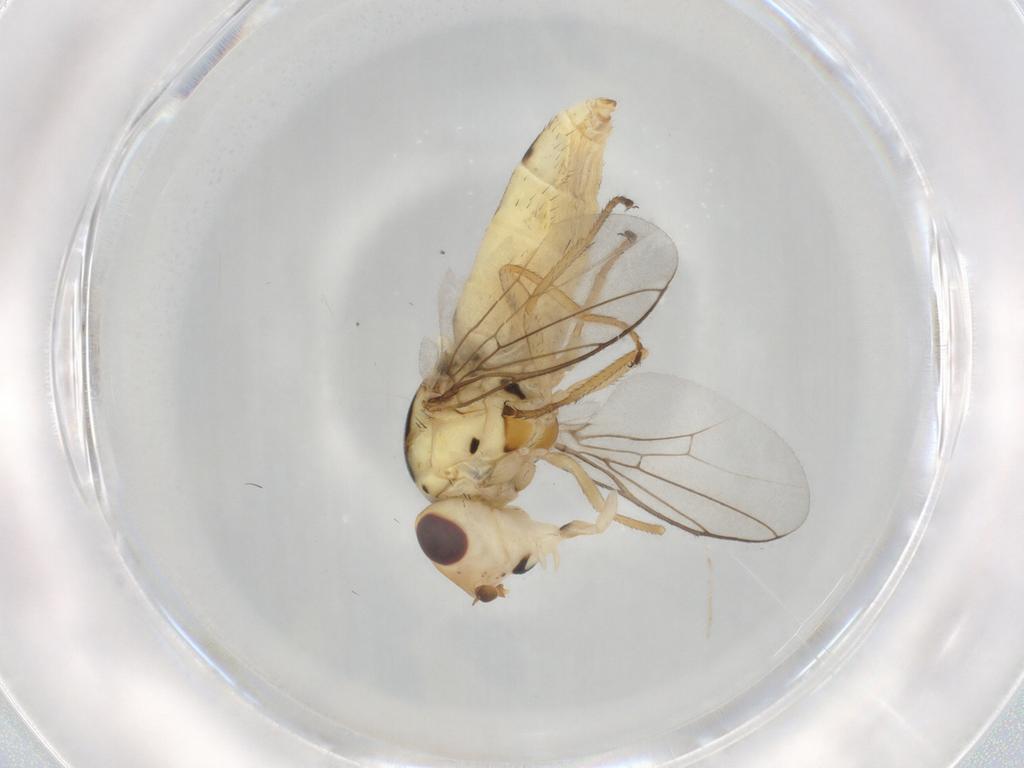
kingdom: Animalia
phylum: Arthropoda
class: Insecta
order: Diptera
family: Chloropidae
